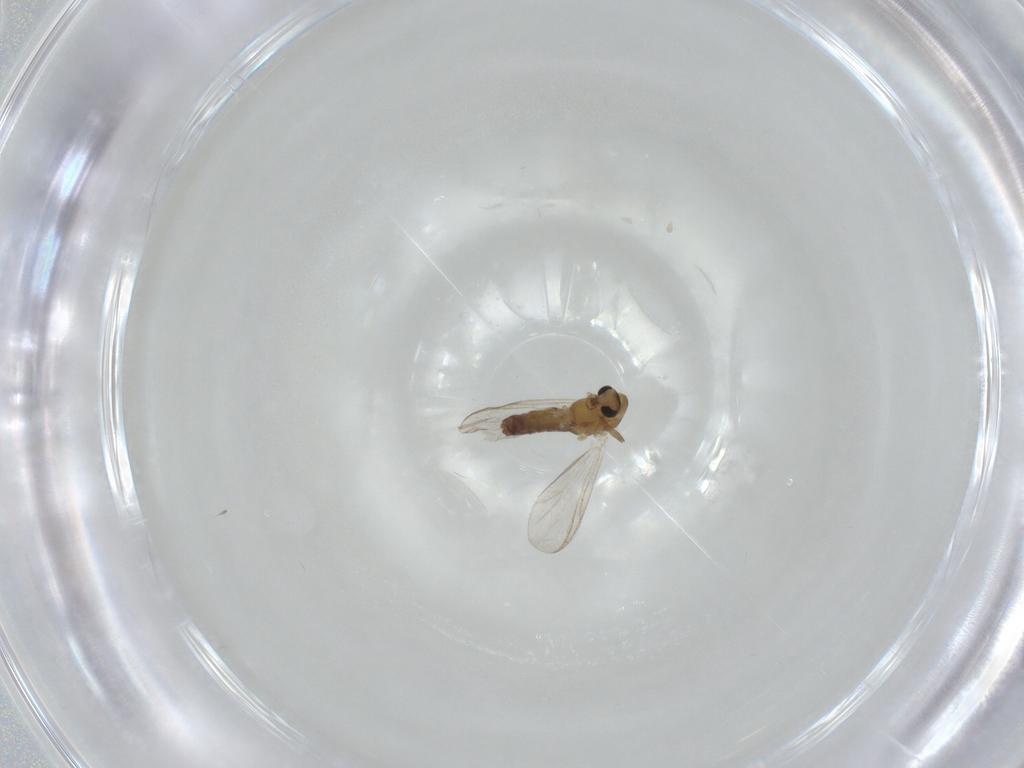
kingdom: Animalia
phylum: Arthropoda
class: Insecta
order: Diptera
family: Chironomidae
